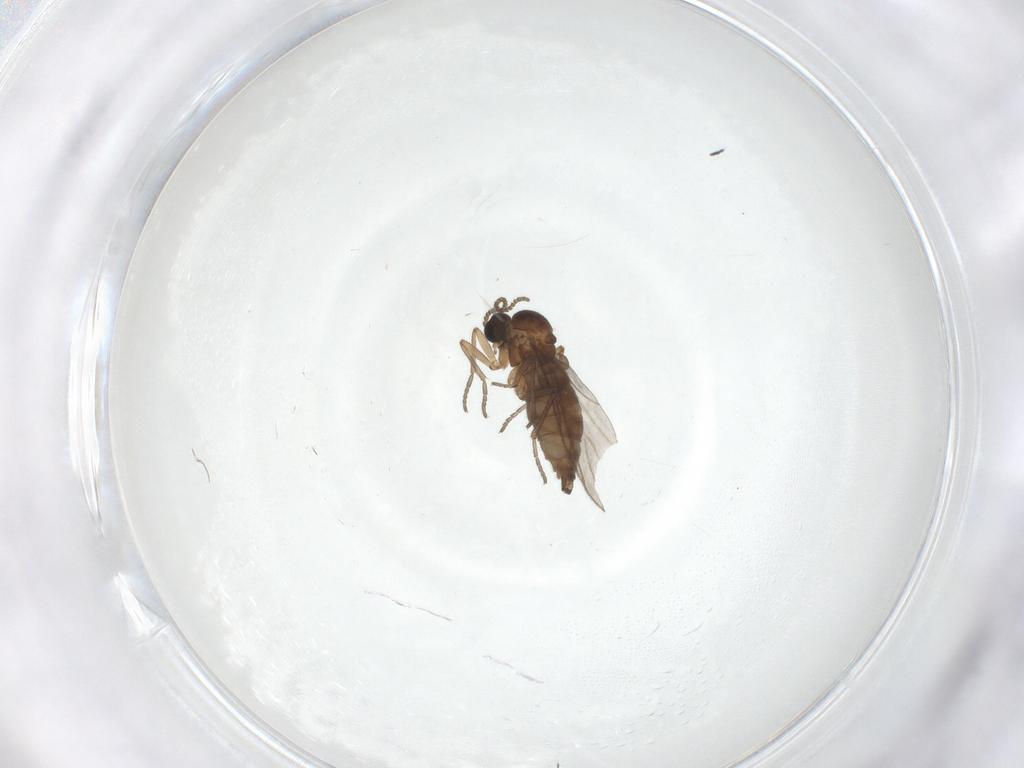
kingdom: Animalia
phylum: Arthropoda
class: Insecta
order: Diptera
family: Sciaridae
